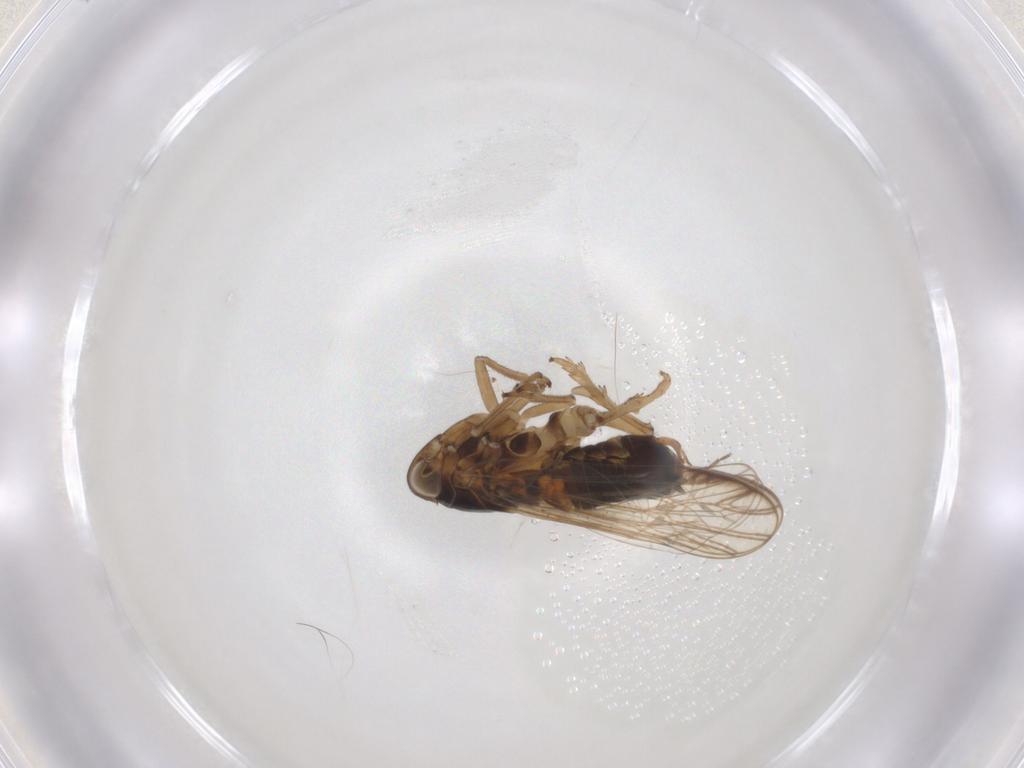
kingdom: Animalia
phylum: Arthropoda
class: Insecta
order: Hemiptera
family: Delphacidae
